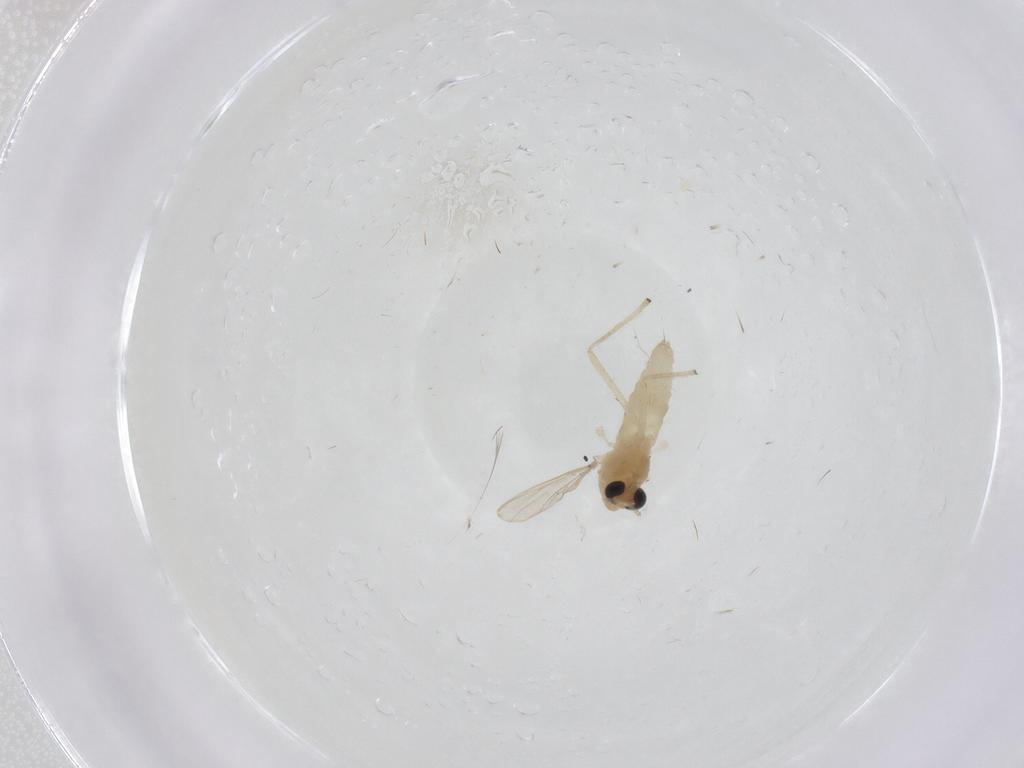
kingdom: Animalia
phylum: Arthropoda
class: Insecta
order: Diptera
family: Chironomidae
